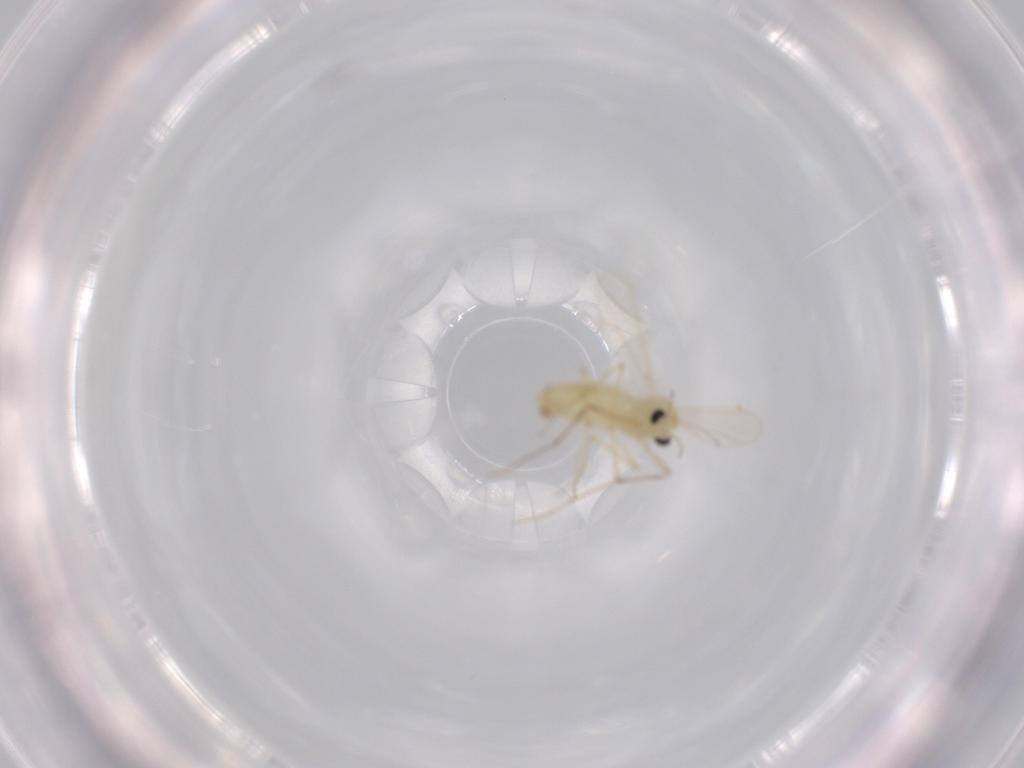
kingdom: Animalia
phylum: Arthropoda
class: Insecta
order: Diptera
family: Chironomidae
